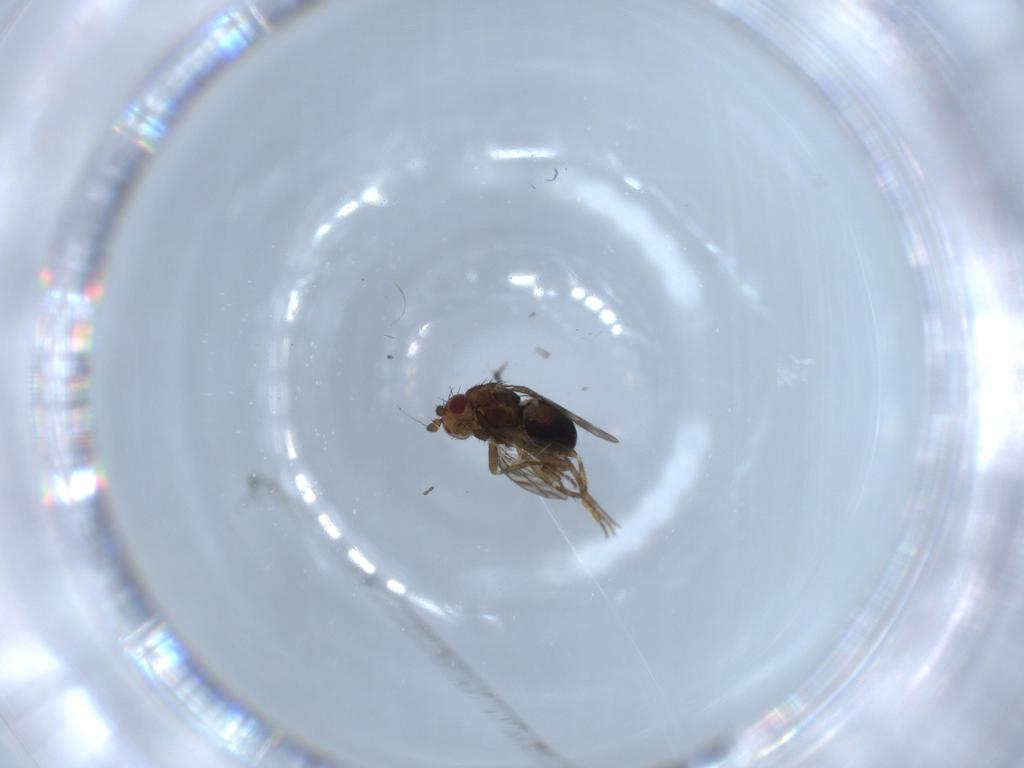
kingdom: Animalia
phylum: Arthropoda
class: Insecta
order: Diptera
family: Sphaeroceridae
